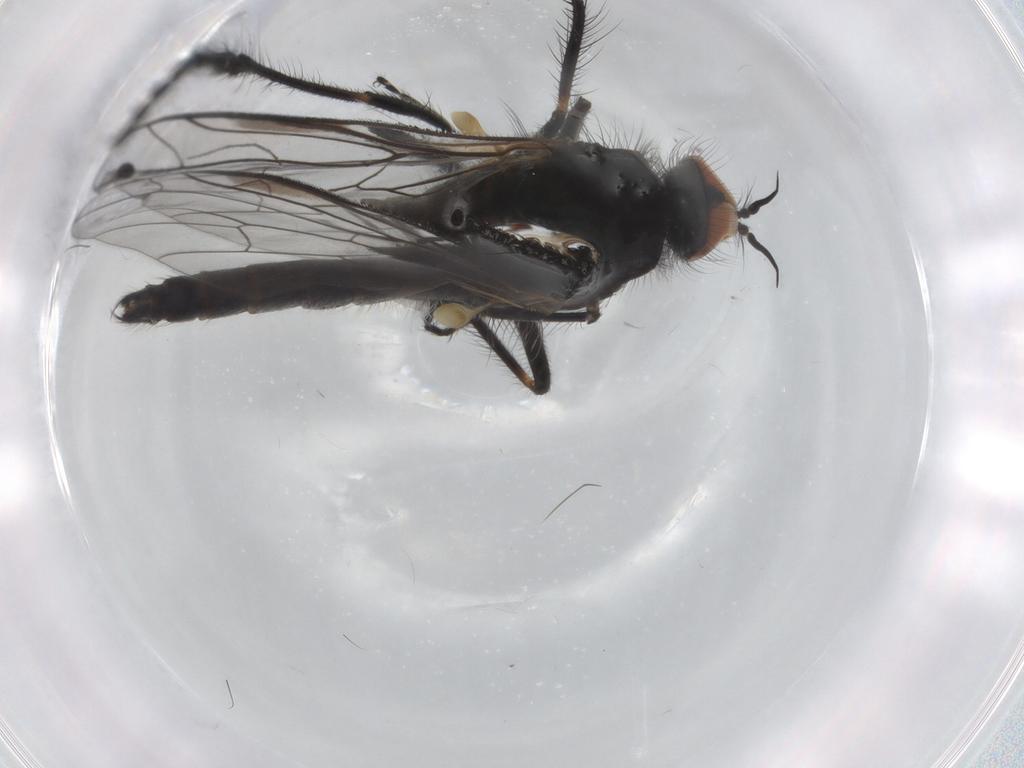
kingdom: Animalia
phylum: Arthropoda
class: Insecta
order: Diptera
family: Empididae
